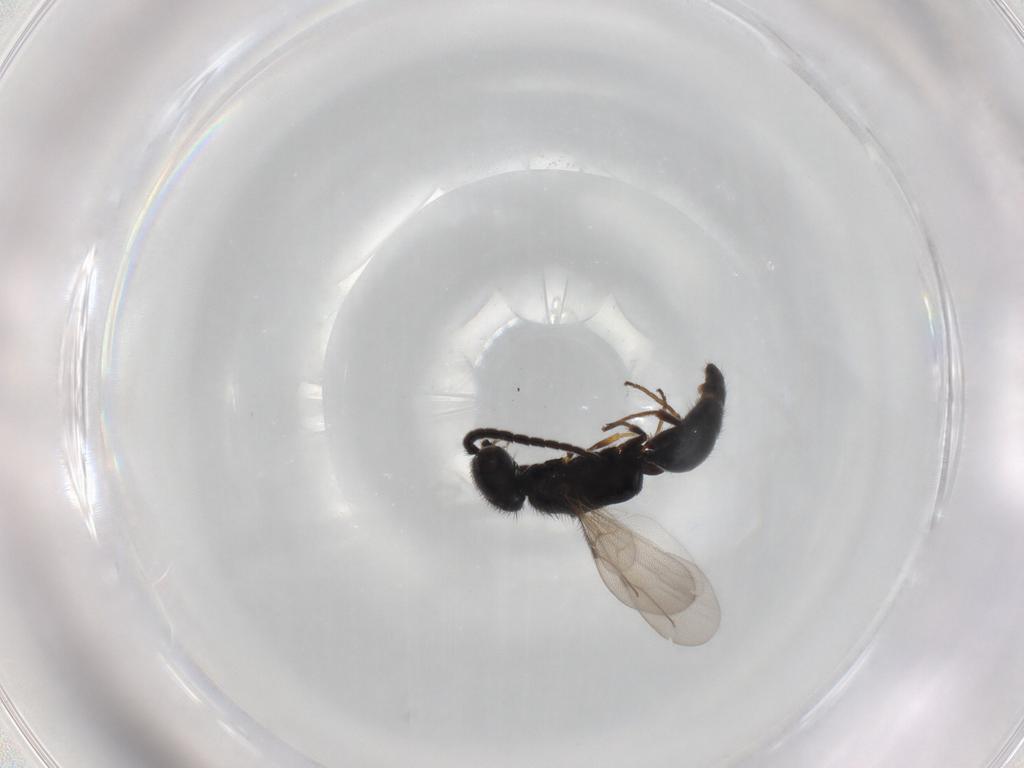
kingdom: Animalia
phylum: Arthropoda
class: Insecta
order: Hymenoptera
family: Bethylidae
